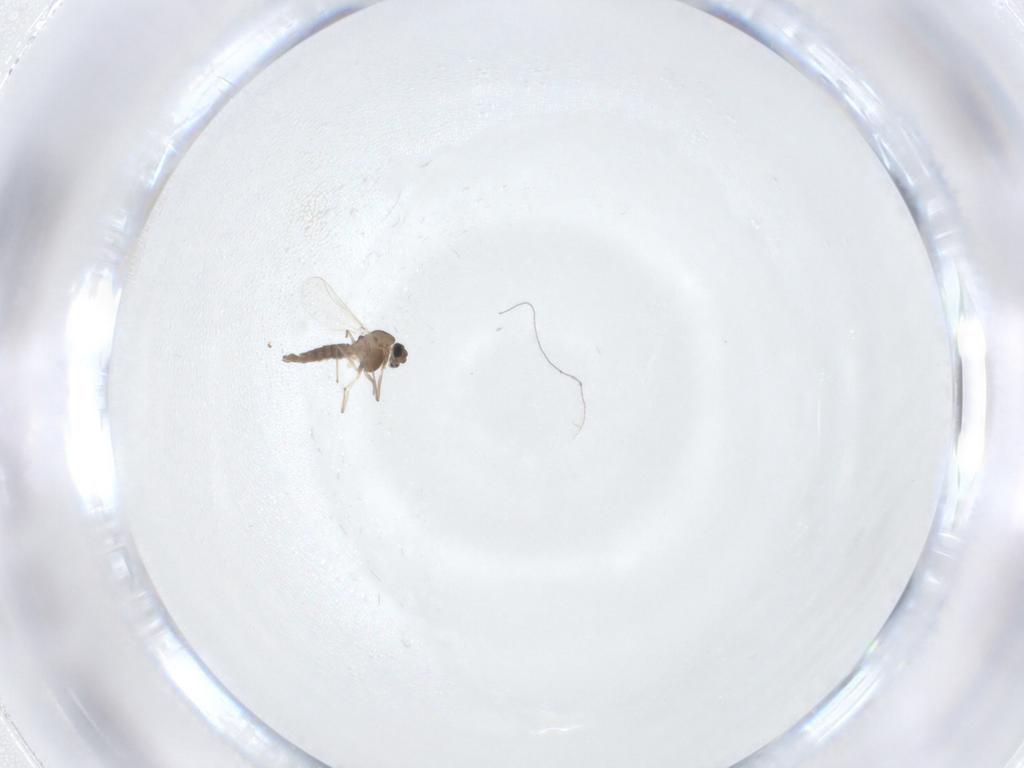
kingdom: Animalia
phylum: Arthropoda
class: Insecta
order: Diptera
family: Chironomidae
